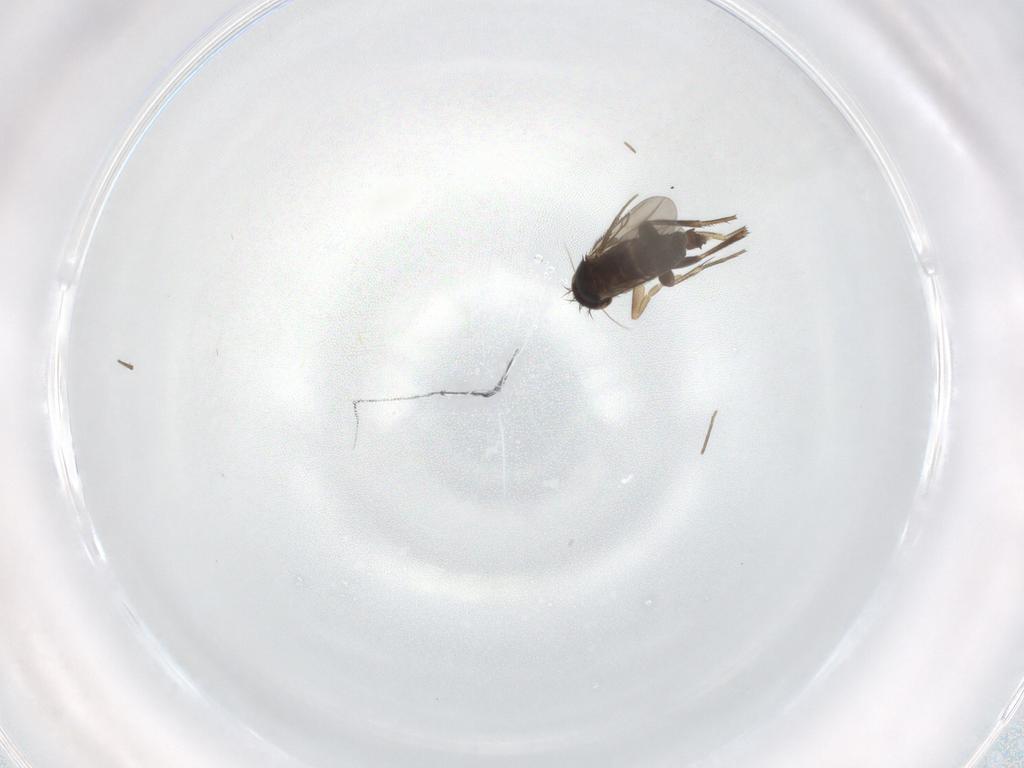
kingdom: Animalia
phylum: Arthropoda
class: Insecta
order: Diptera
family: Phoridae
